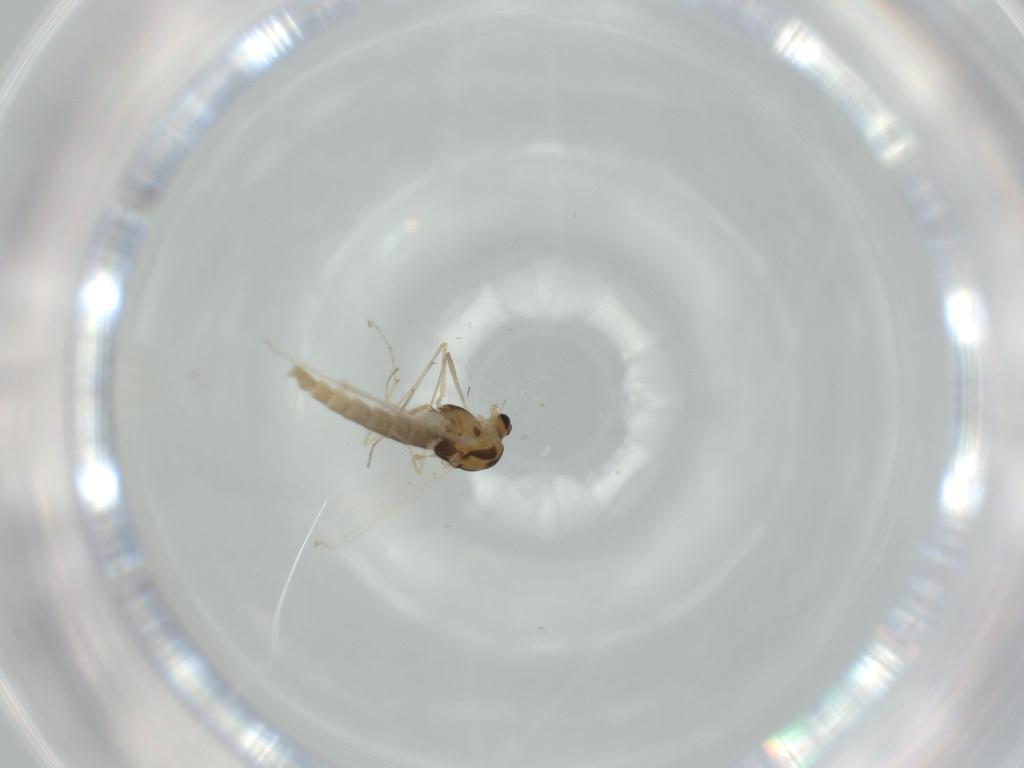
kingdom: Animalia
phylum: Arthropoda
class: Insecta
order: Diptera
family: Chironomidae
